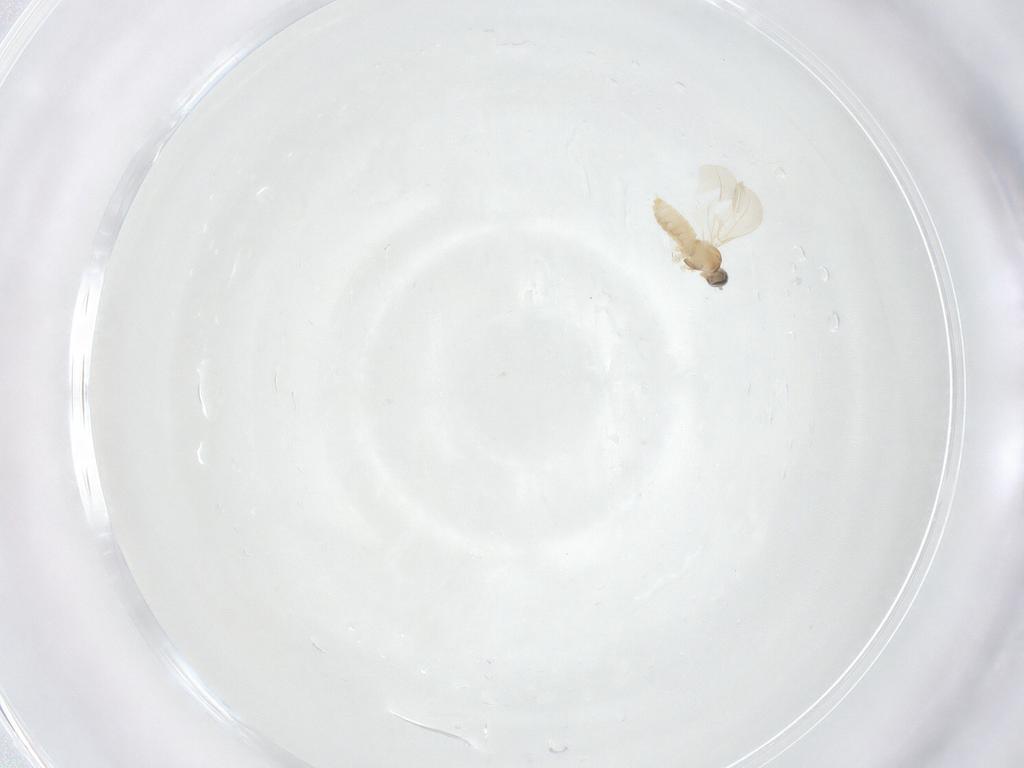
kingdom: Animalia
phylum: Arthropoda
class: Insecta
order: Diptera
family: Cecidomyiidae
